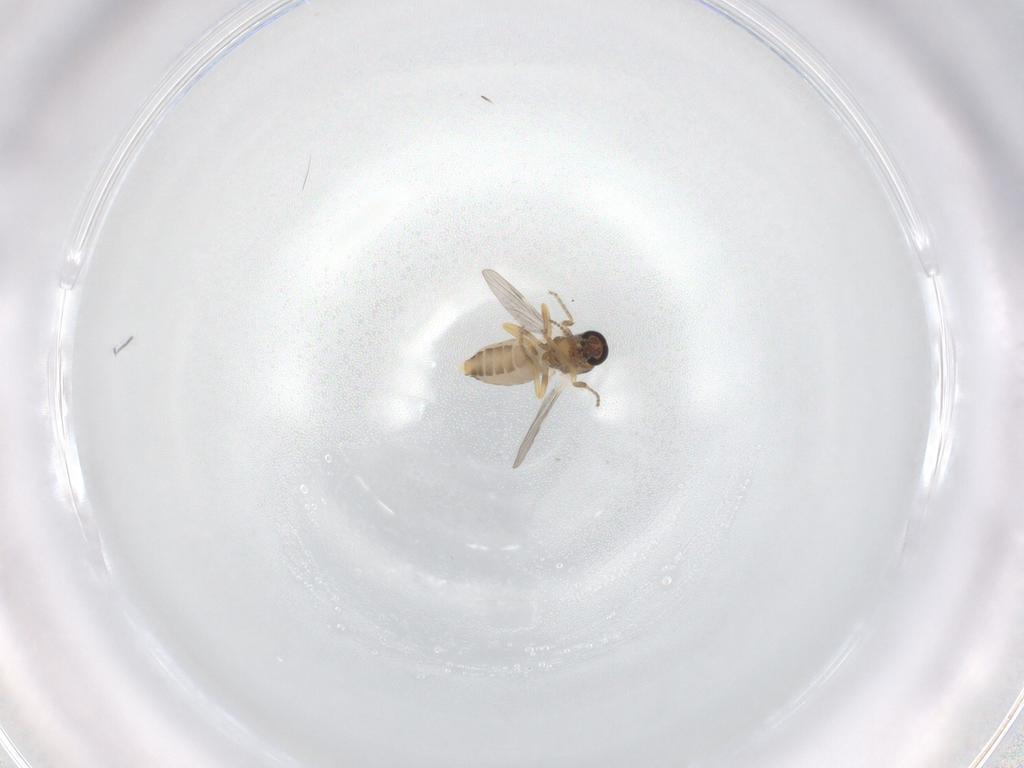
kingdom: Animalia
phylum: Arthropoda
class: Insecta
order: Diptera
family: Ceratopogonidae
